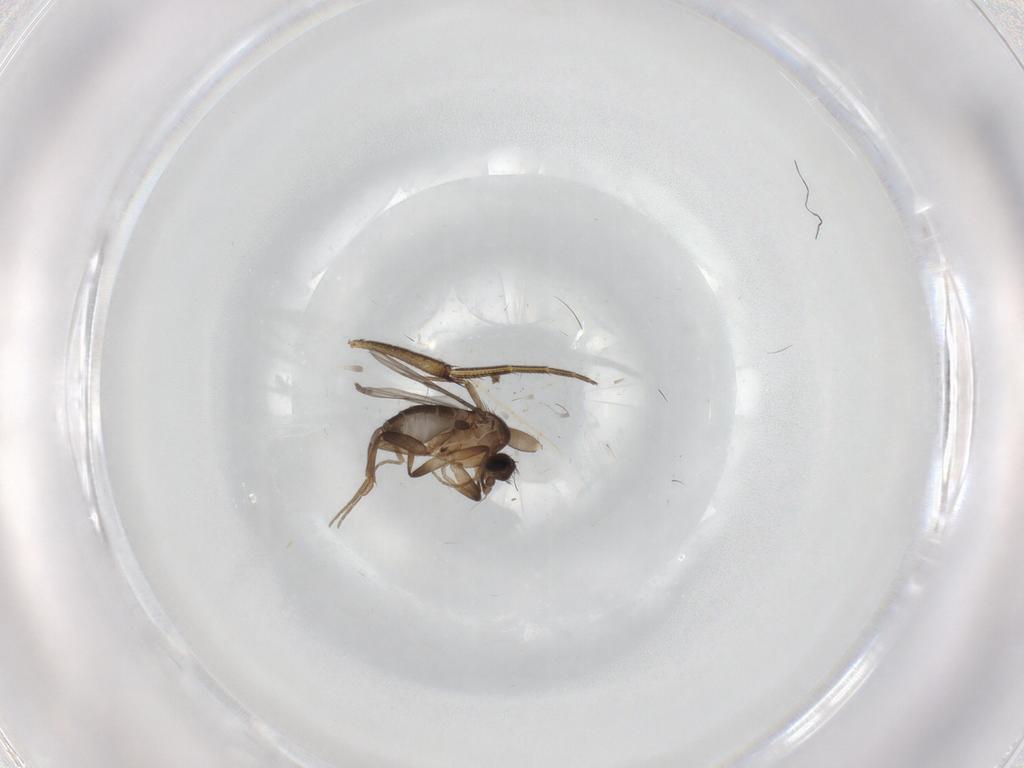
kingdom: Animalia
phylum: Arthropoda
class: Insecta
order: Diptera
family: Phoridae
